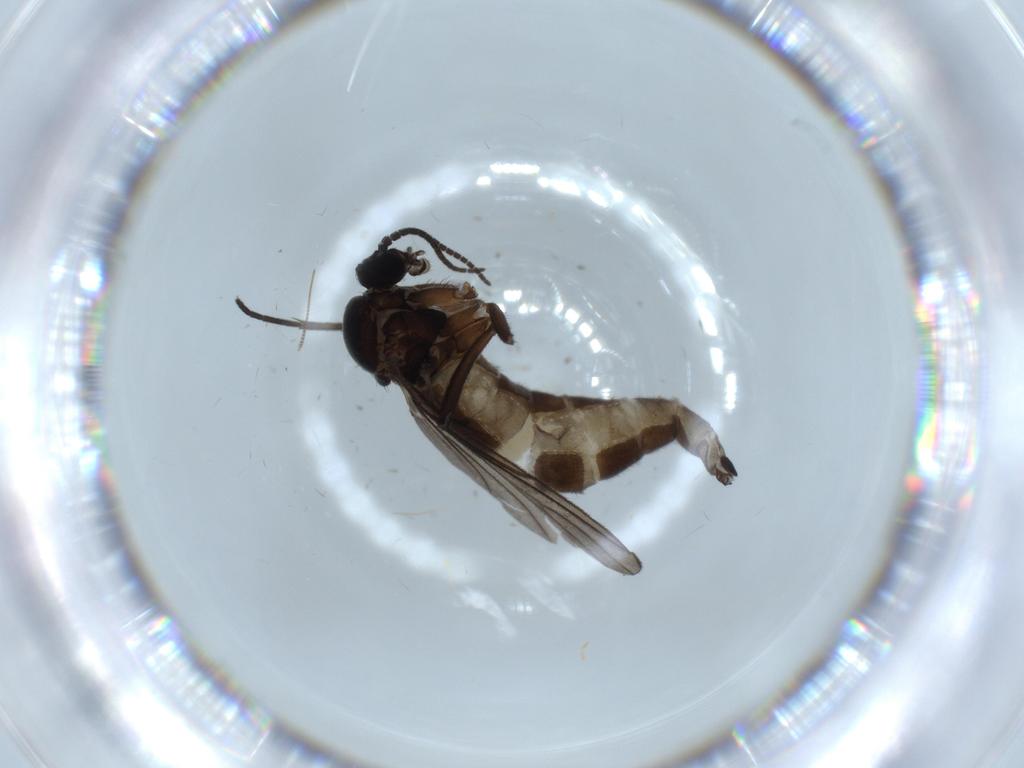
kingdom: Animalia
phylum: Arthropoda
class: Insecta
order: Diptera
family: Sciaridae
